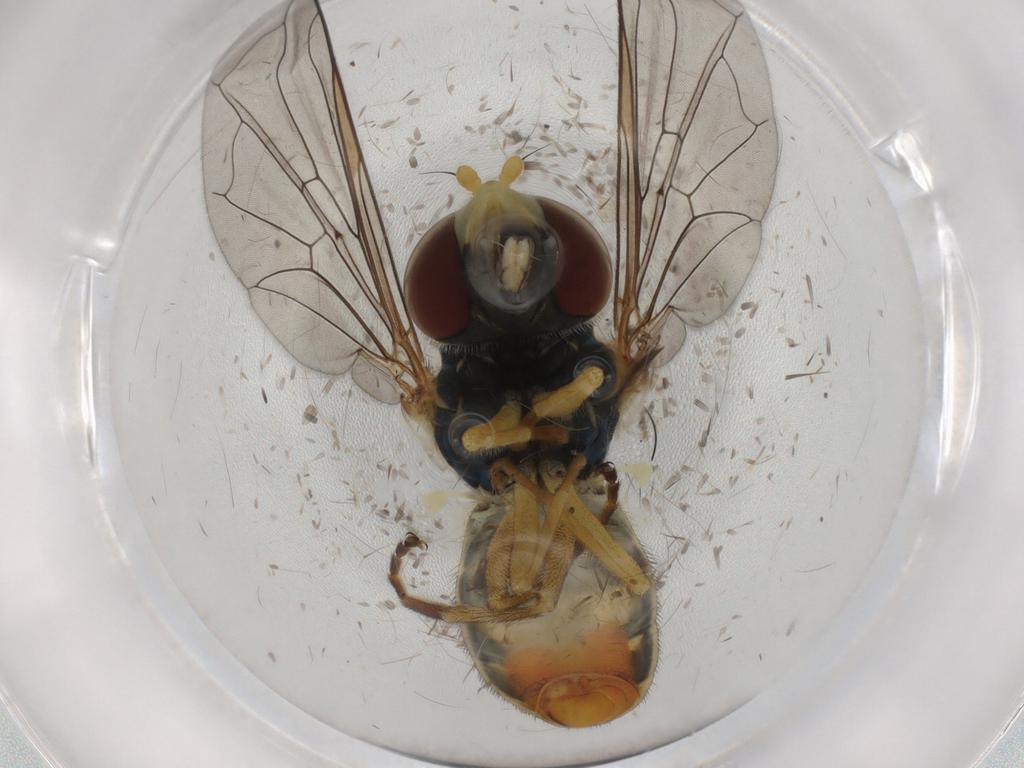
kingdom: Animalia
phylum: Arthropoda
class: Insecta
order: Diptera
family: Syrphidae
